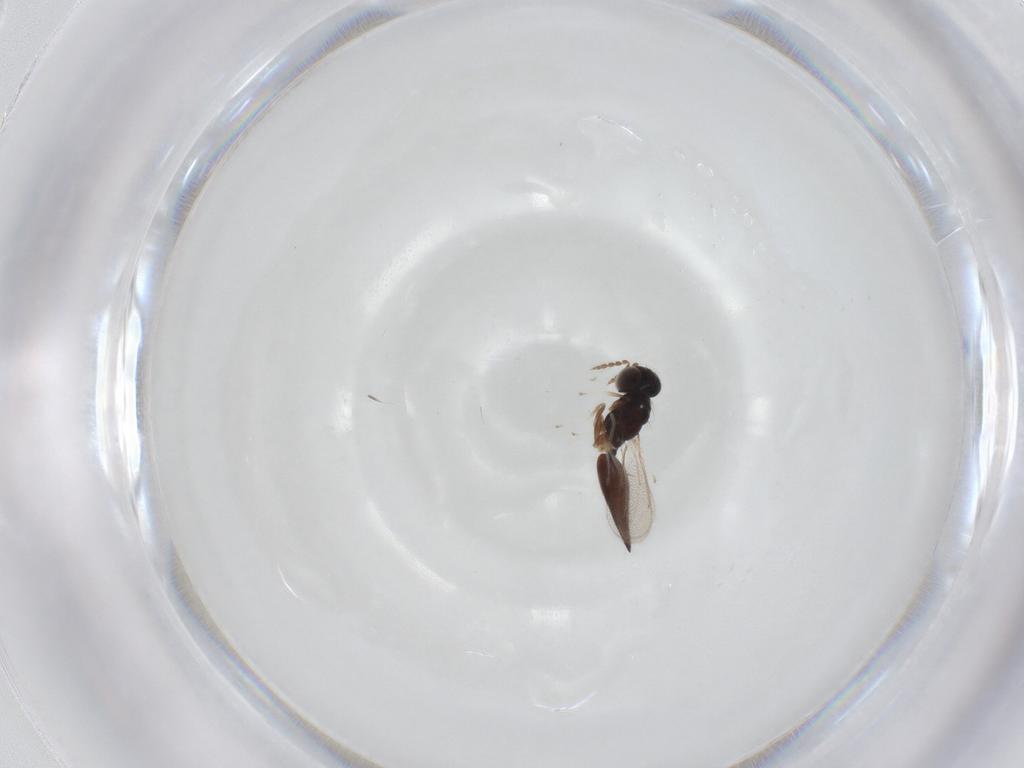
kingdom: Animalia
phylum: Arthropoda
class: Insecta
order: Hymenoptera
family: Eulophidae
